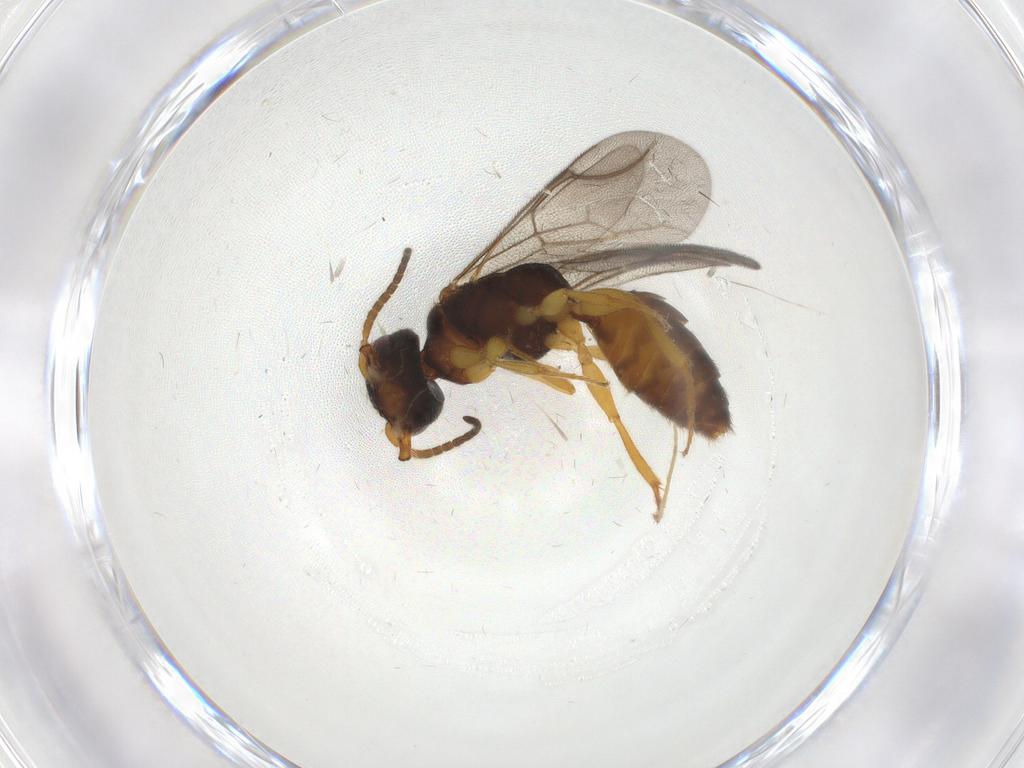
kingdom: Animalia
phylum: Arthropoda
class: Insecta
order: Hymenoptera
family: Bethylidae
